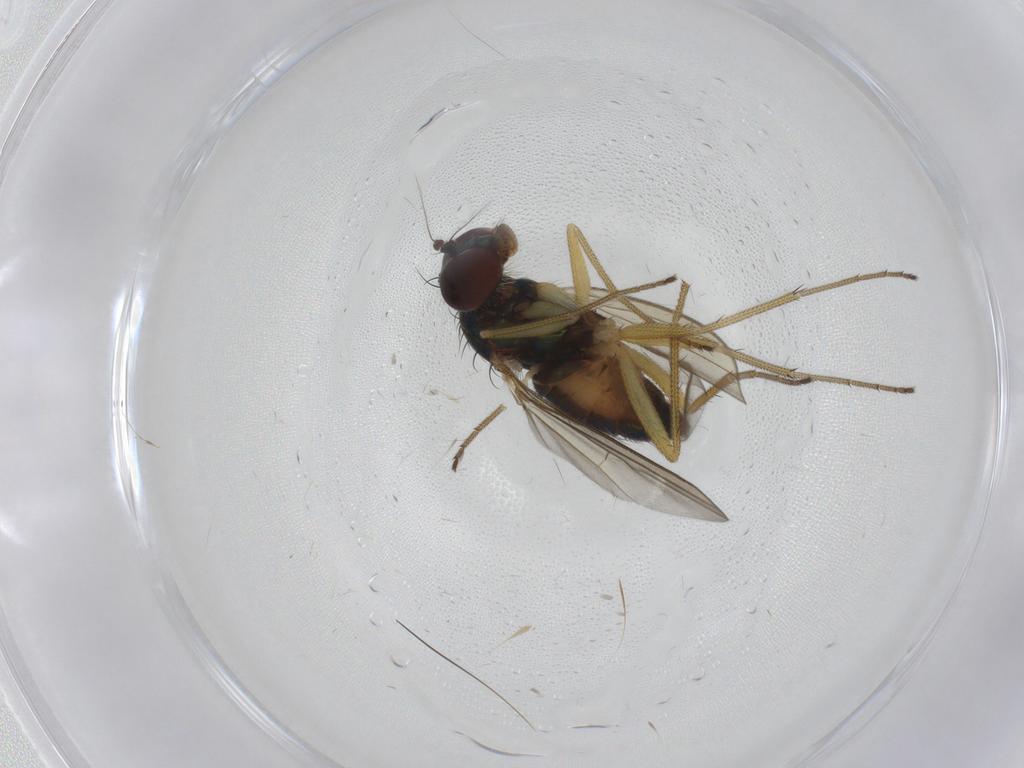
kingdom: Animalia
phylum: Arthropoda
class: Insecta
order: Diptera
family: Dolichopodidae
